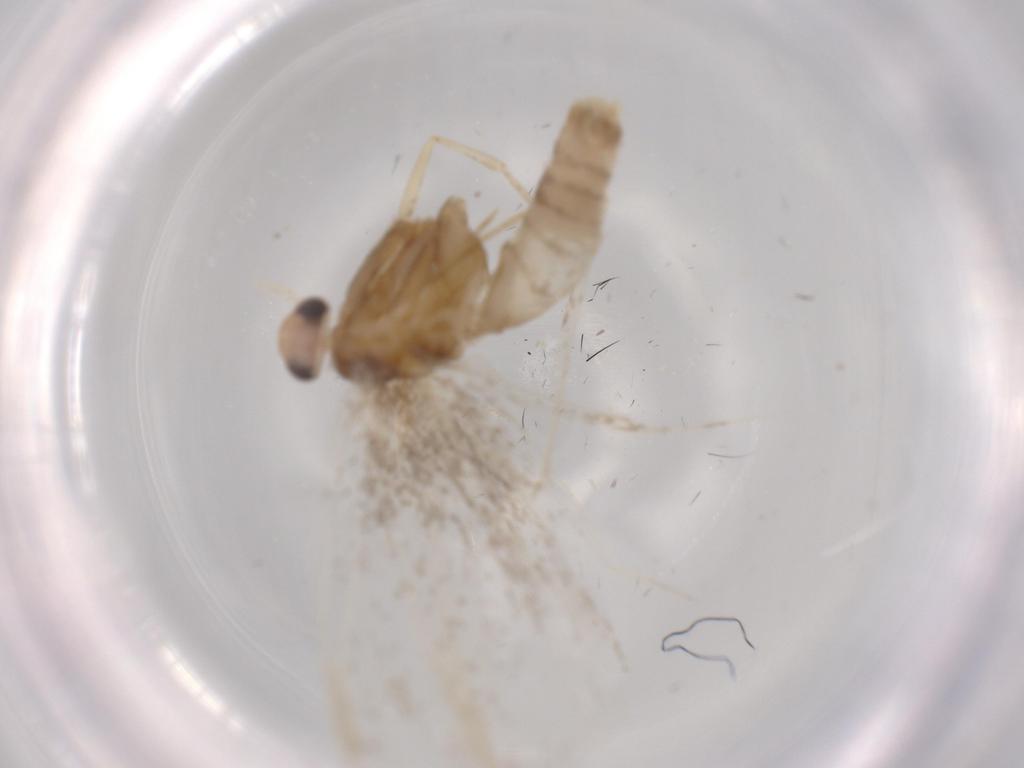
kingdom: Animalia
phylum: Arthropoda
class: Insecta
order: Lepidoptera
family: Argyresthiidae
